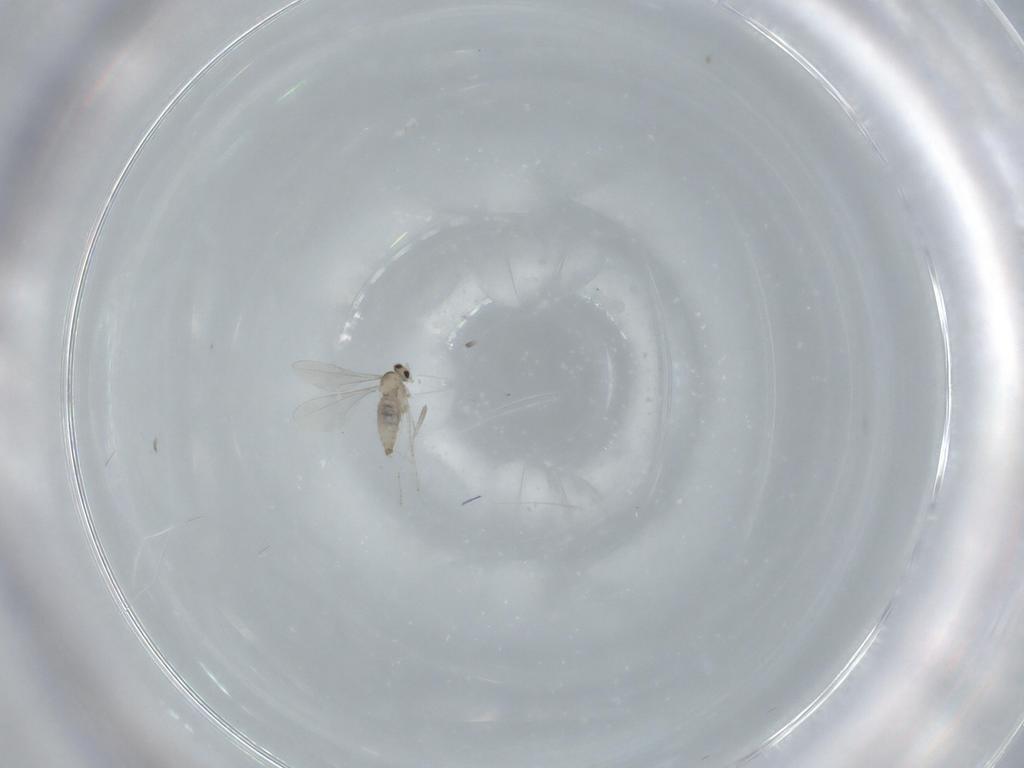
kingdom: Animalia
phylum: Arthropoda
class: Insecta
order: Diptera
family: Cecidomyiidae
